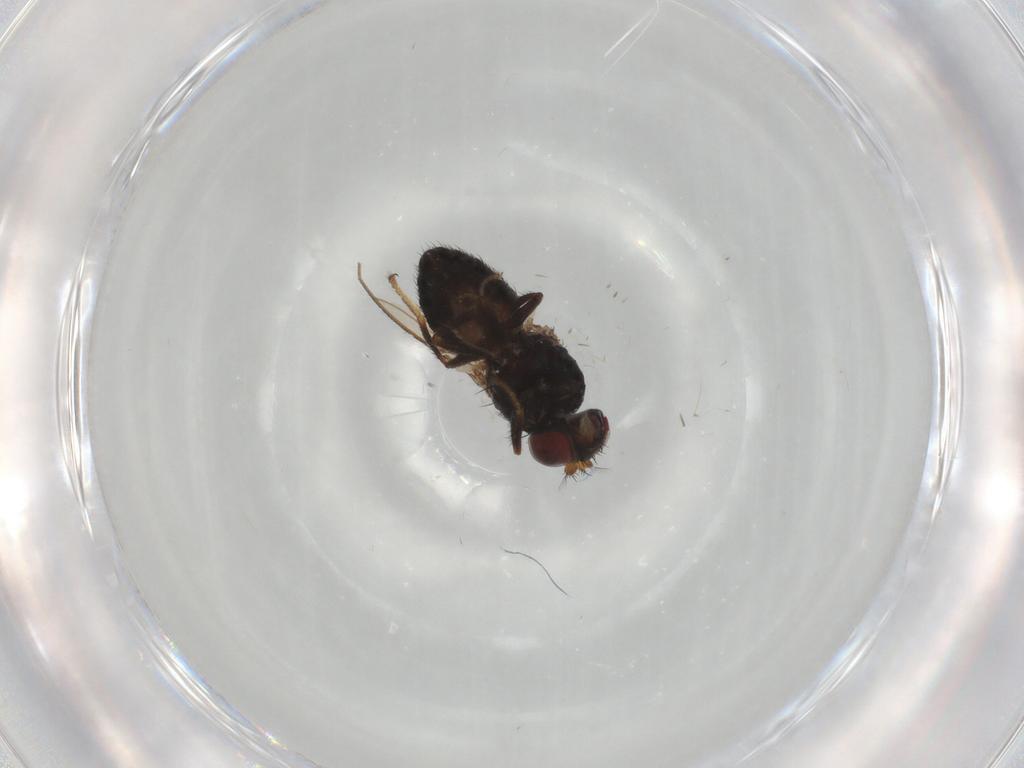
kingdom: Animalia
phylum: Arthropoda
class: Insecta
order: Diptera
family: Ephydridae
